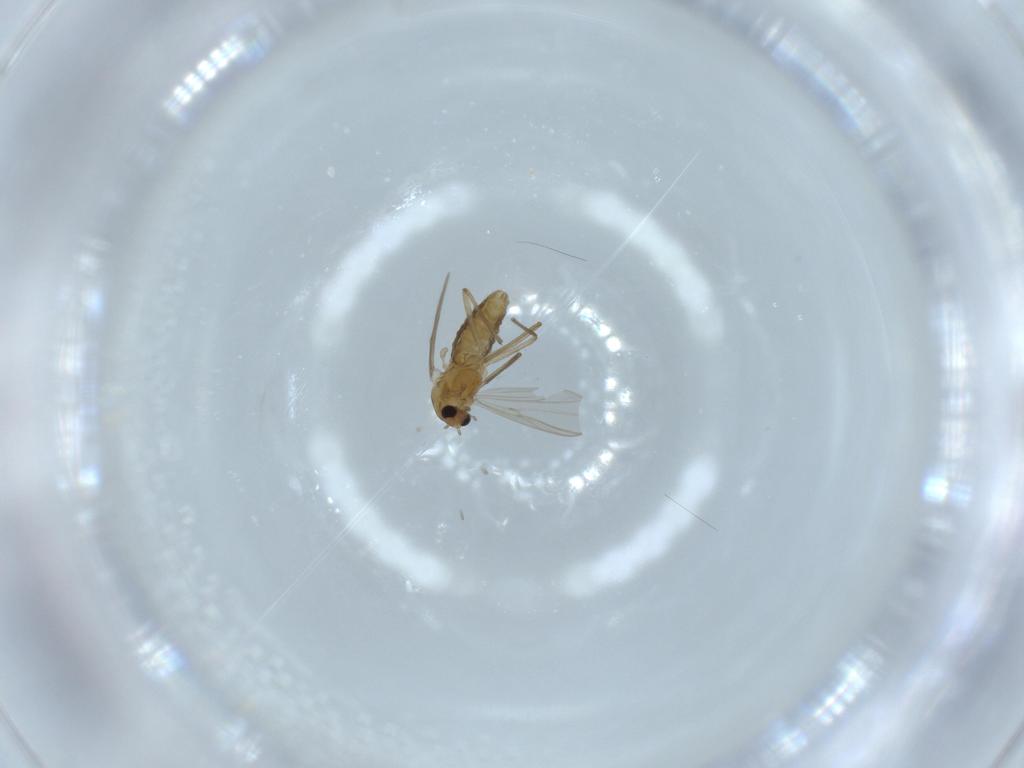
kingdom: Animalia
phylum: Arthropoda
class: Insecta
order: Diptera
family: Chironomidae
